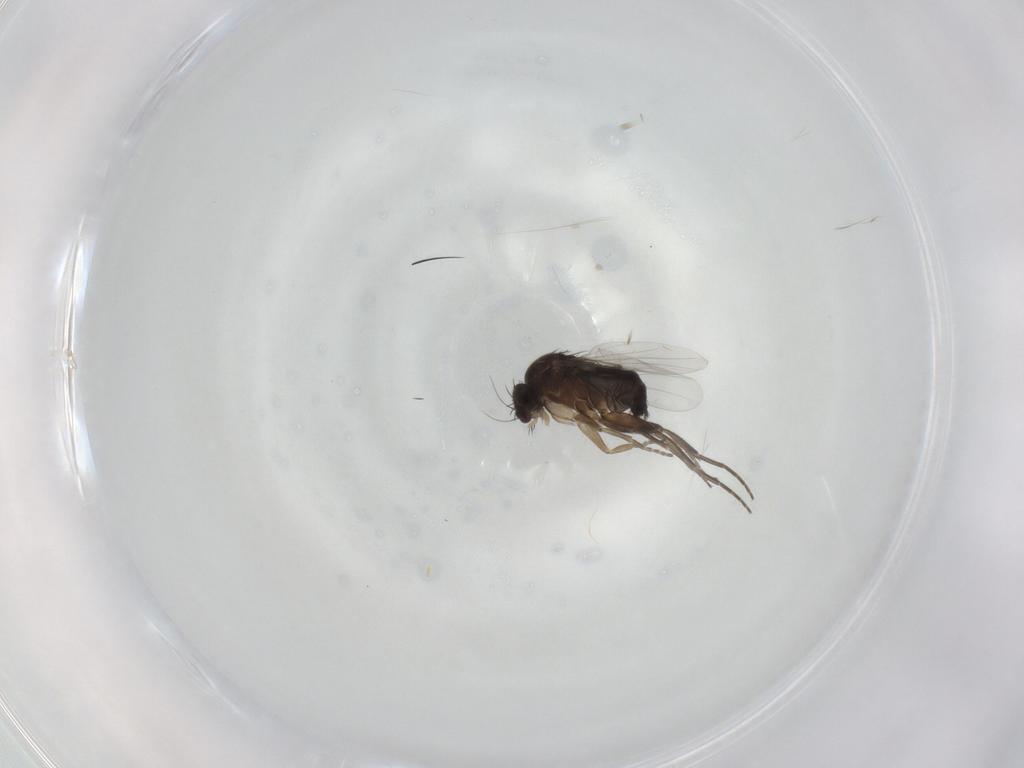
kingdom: Animalia
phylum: Arthropoda
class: Insecta
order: Diptera
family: Phoridae
